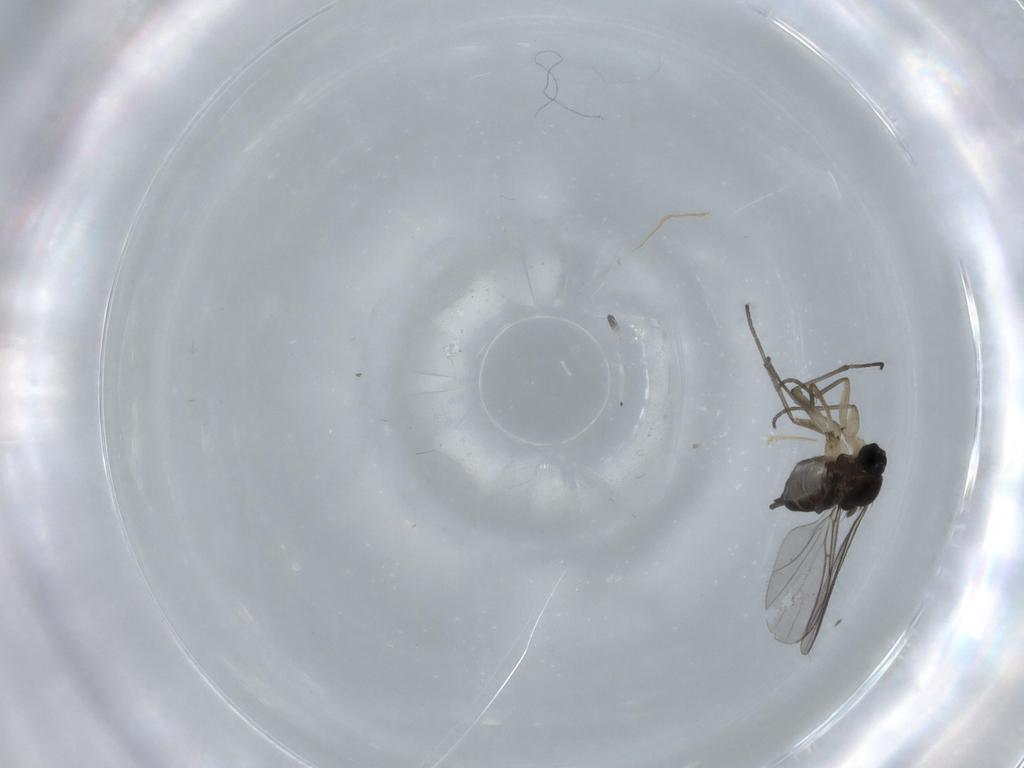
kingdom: Animalia
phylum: Arthropoda
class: Insecta
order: Diptera
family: Sciaridae
